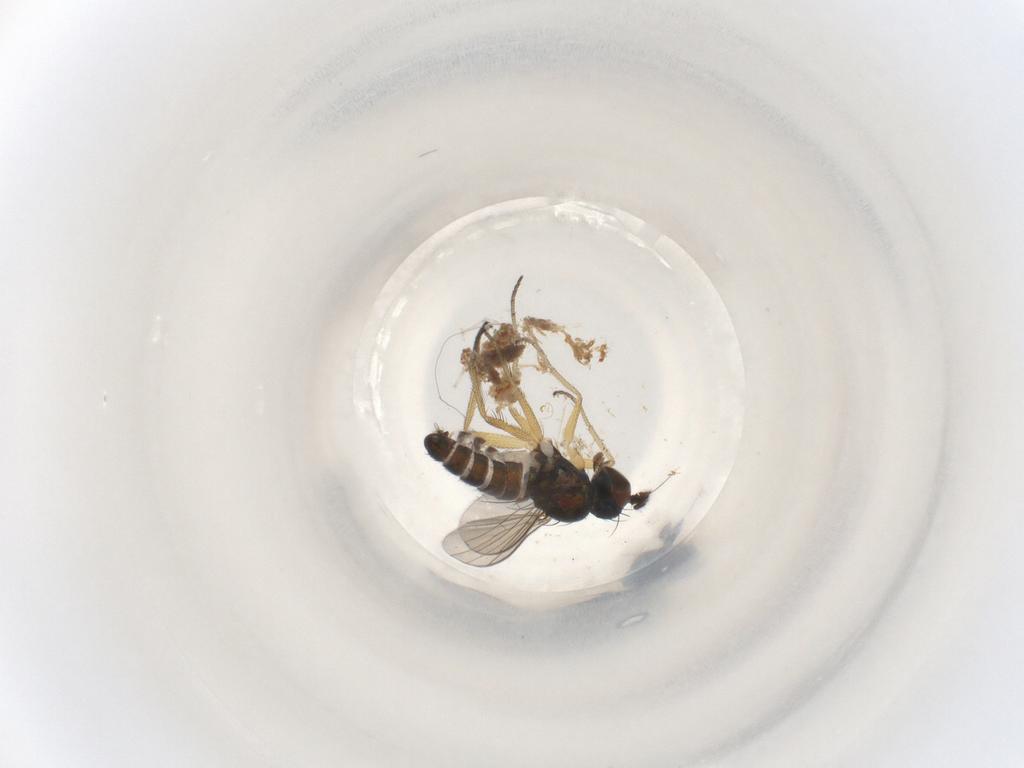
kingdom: Animalia
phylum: Arthropoda
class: Insecta
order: Diptera
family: Chloropidae
